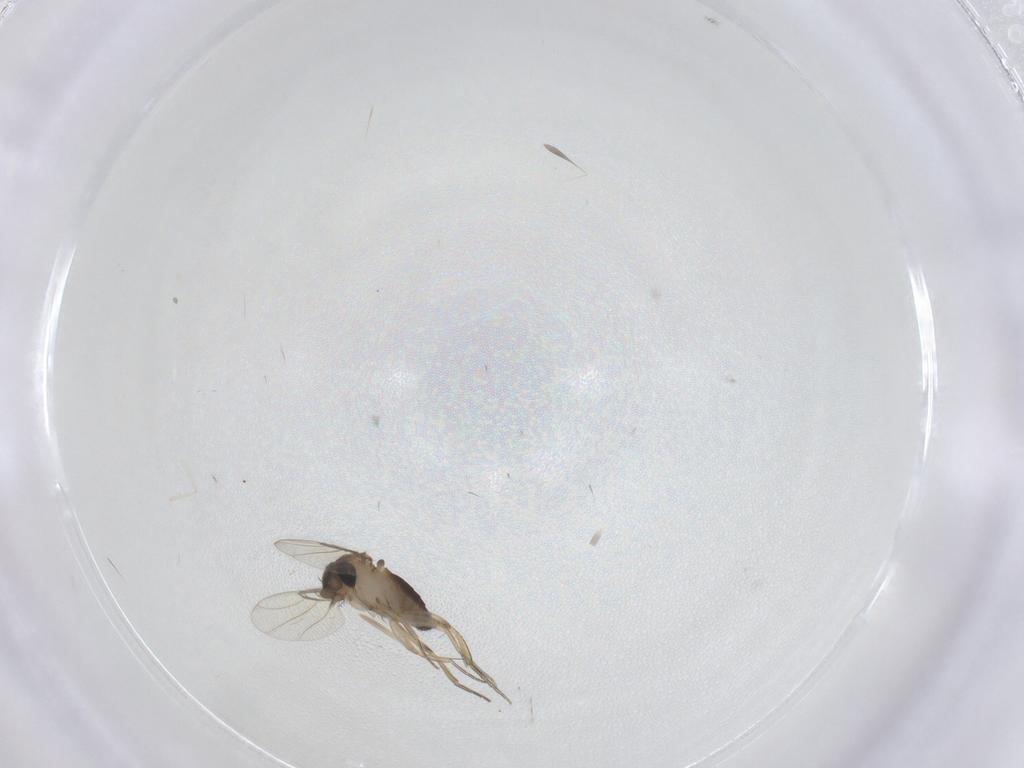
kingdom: Animalia
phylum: Arthropoda
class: Insecta
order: Diptera
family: Phoridae
